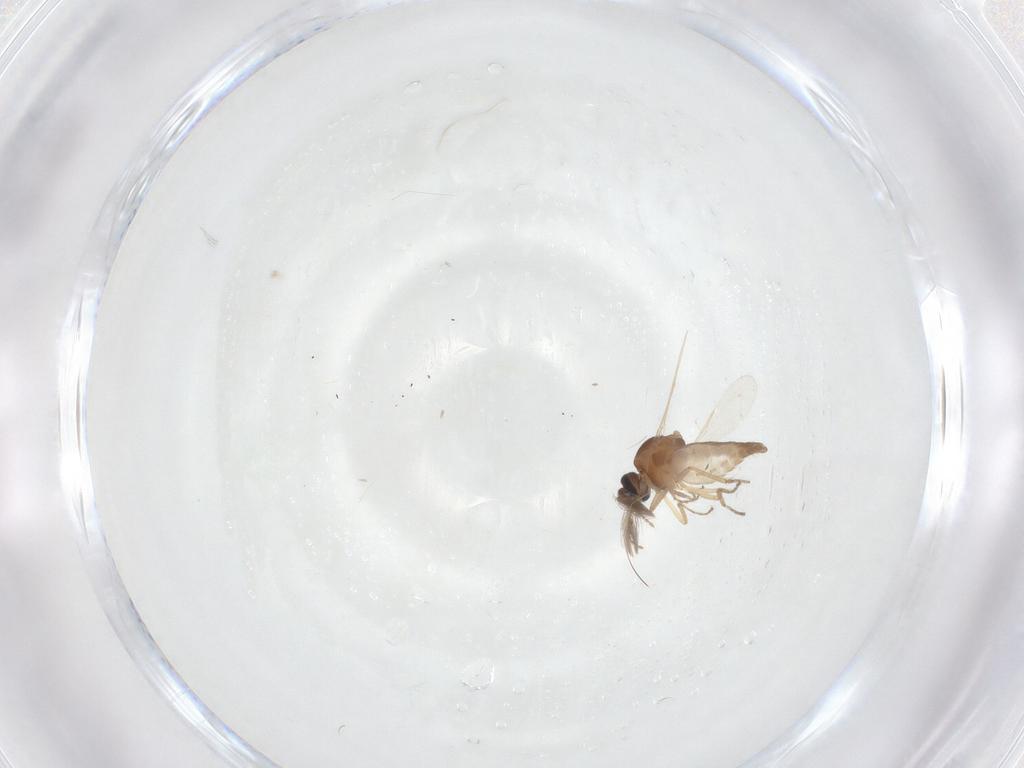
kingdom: Animalia
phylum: Arthropoda
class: Insecta
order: Diptera
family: Ceratopogonidae
